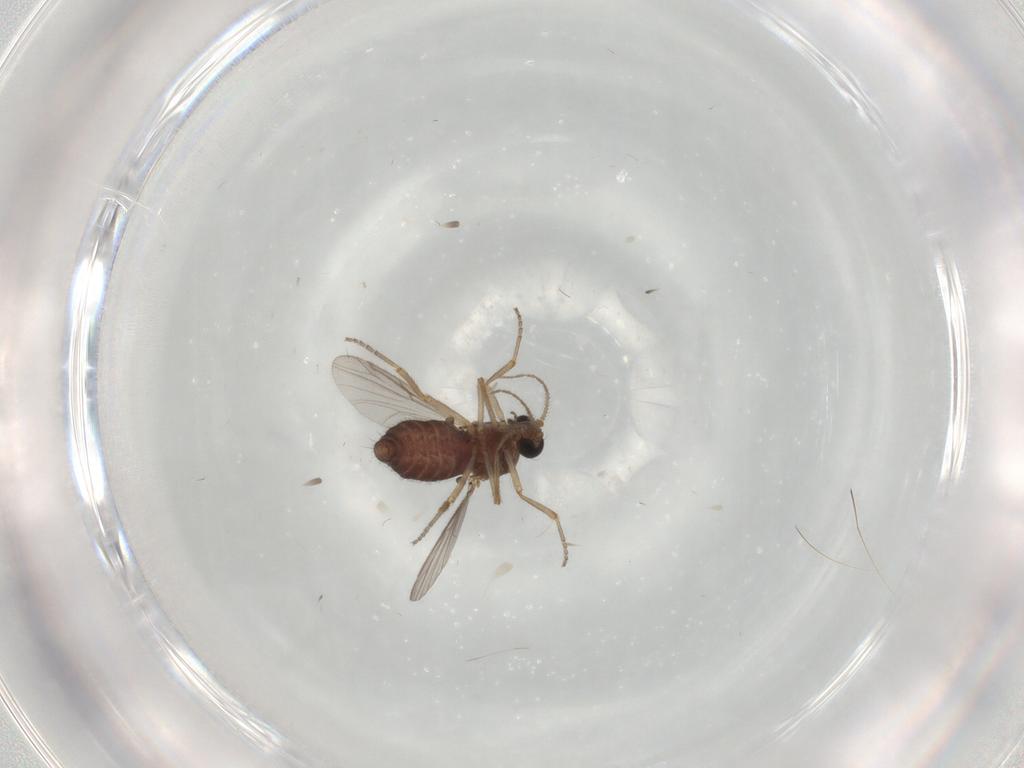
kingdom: Animalia
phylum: Arthropoda
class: Insecta
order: Diptera
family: Ceratopogonidae
